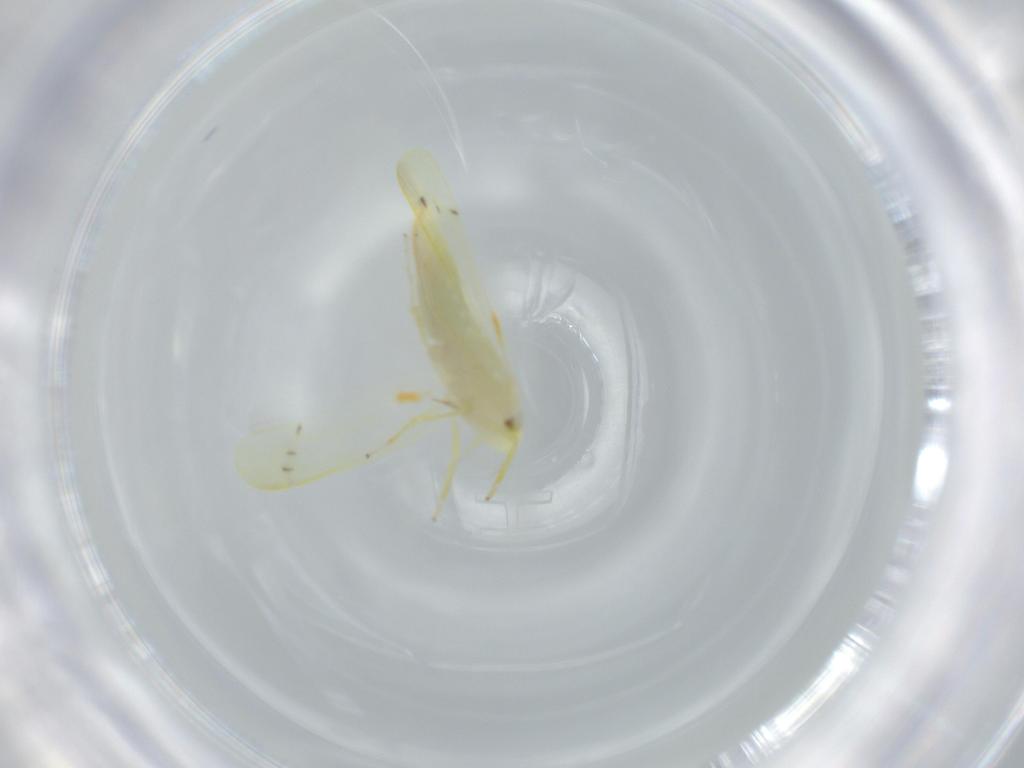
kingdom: Animalia
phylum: Arthropoda
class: Insecta
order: Hemiptera
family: Cicadellidae
